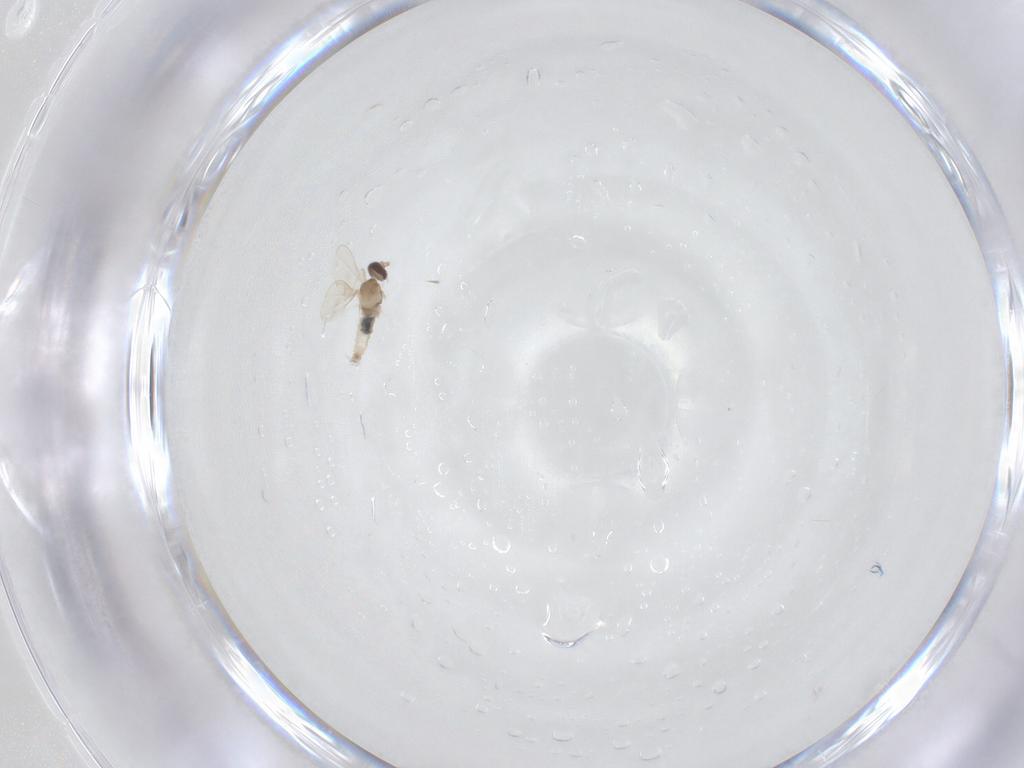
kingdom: Animalia
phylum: Arthropoda
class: Insecta
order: Diptera
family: Cecidomyiidae
